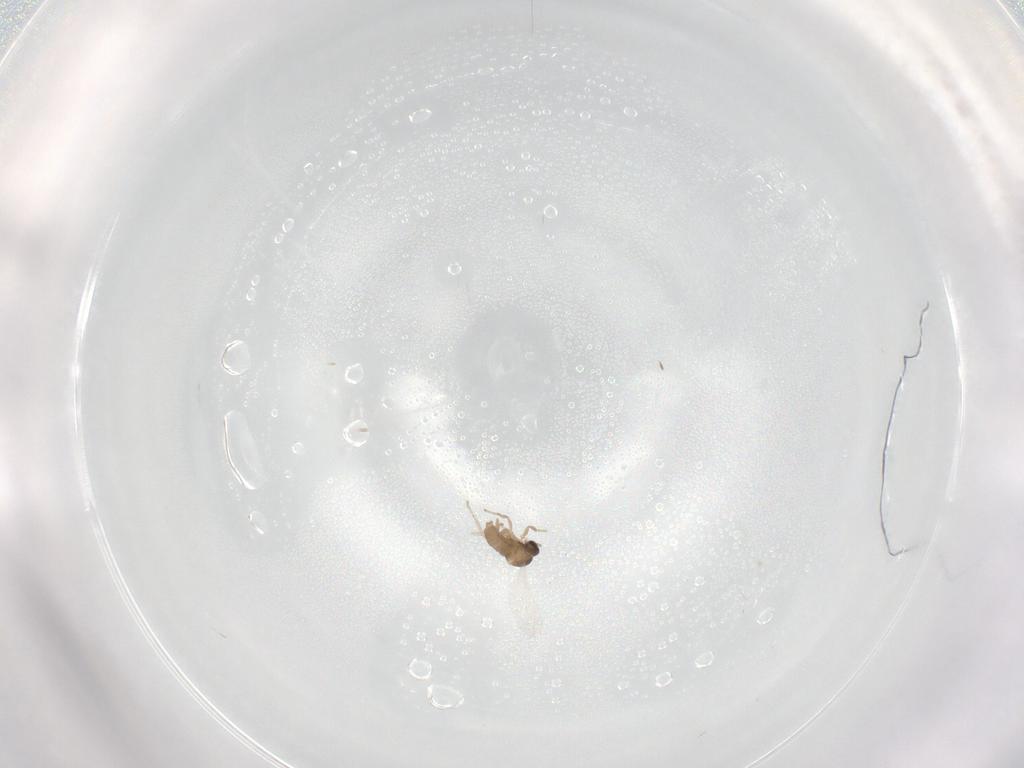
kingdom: Animalia
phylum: Arthropoda
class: Insecta
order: Diptera
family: Cecidomyiidae
